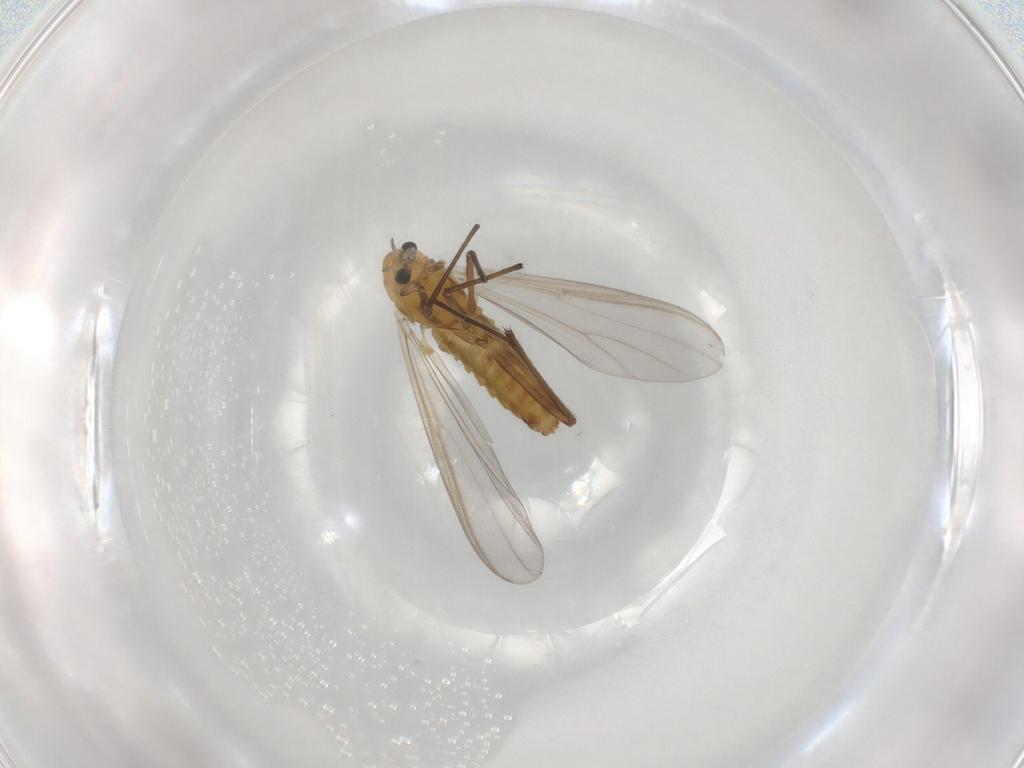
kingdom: Animalia
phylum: Arthropoda
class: Insecta
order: Diptera
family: Chironomidae
